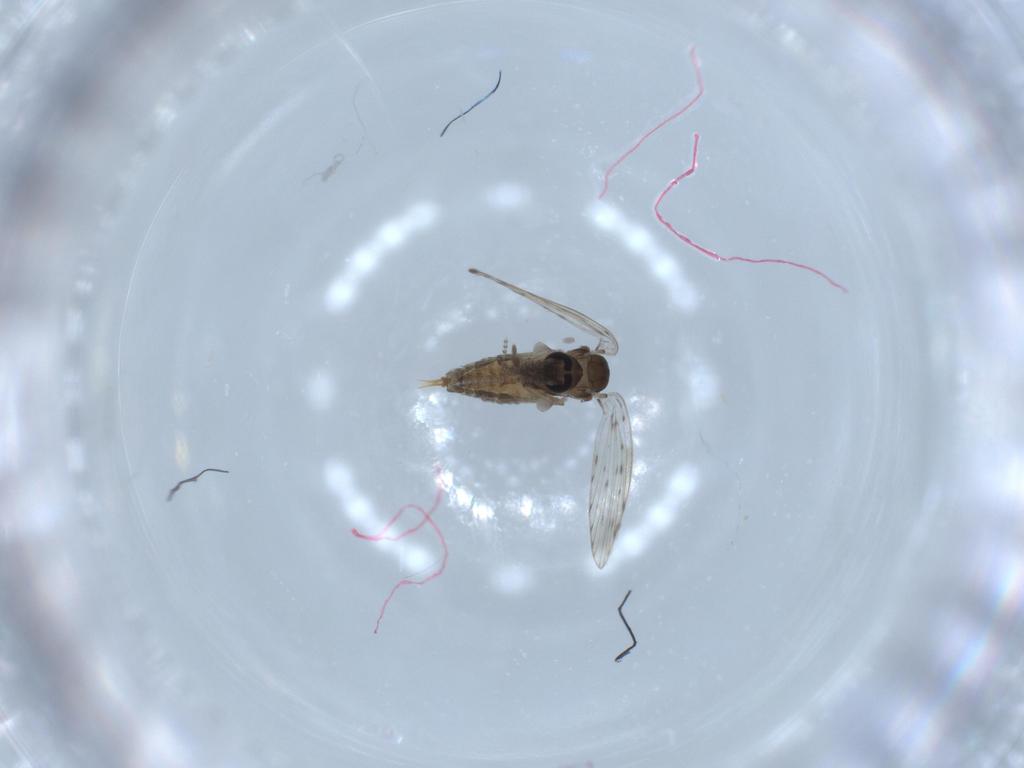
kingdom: Animalia
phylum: Arthropoda
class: Insecta
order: Diptera
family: Psychodidae
